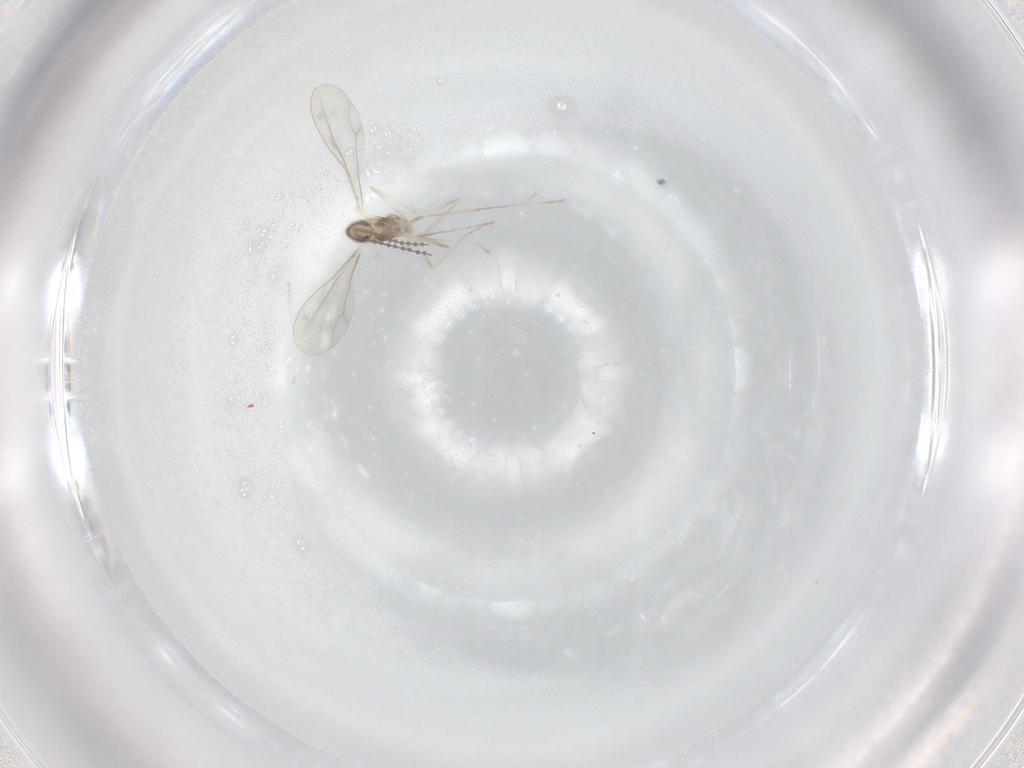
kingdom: Animalia
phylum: Arthropoda
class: Insecta
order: Diptera
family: Cecidomyiidae
